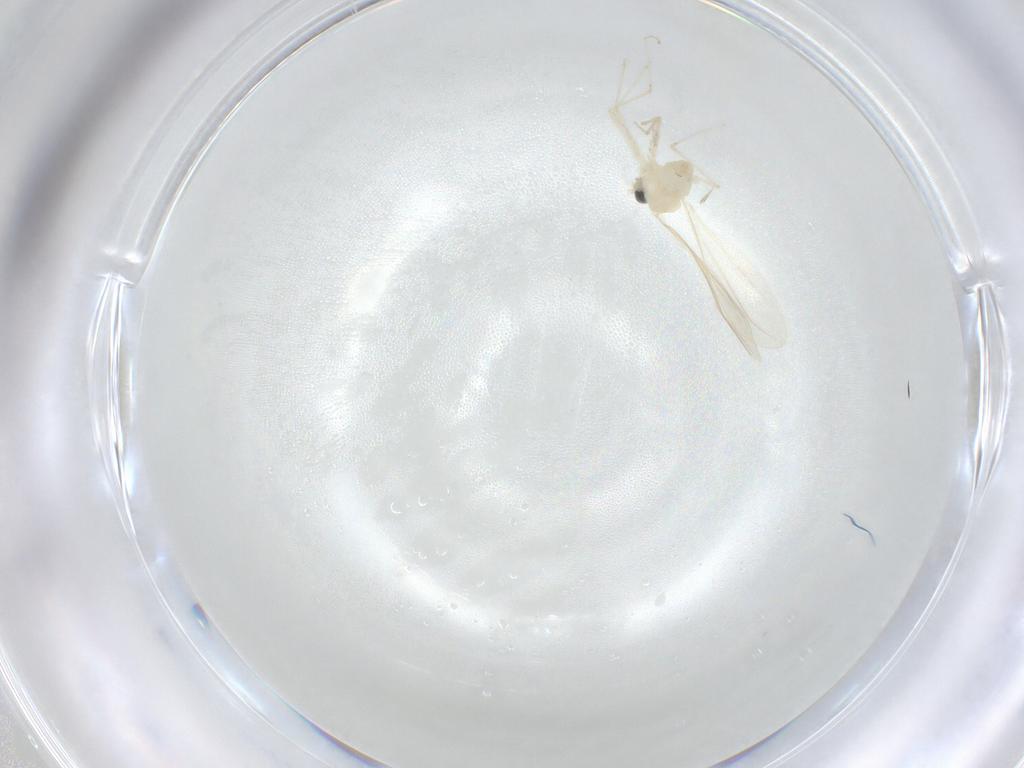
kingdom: Animalia
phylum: Arthropoda
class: Insecta
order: Diptera
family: Cecidomyiidae
